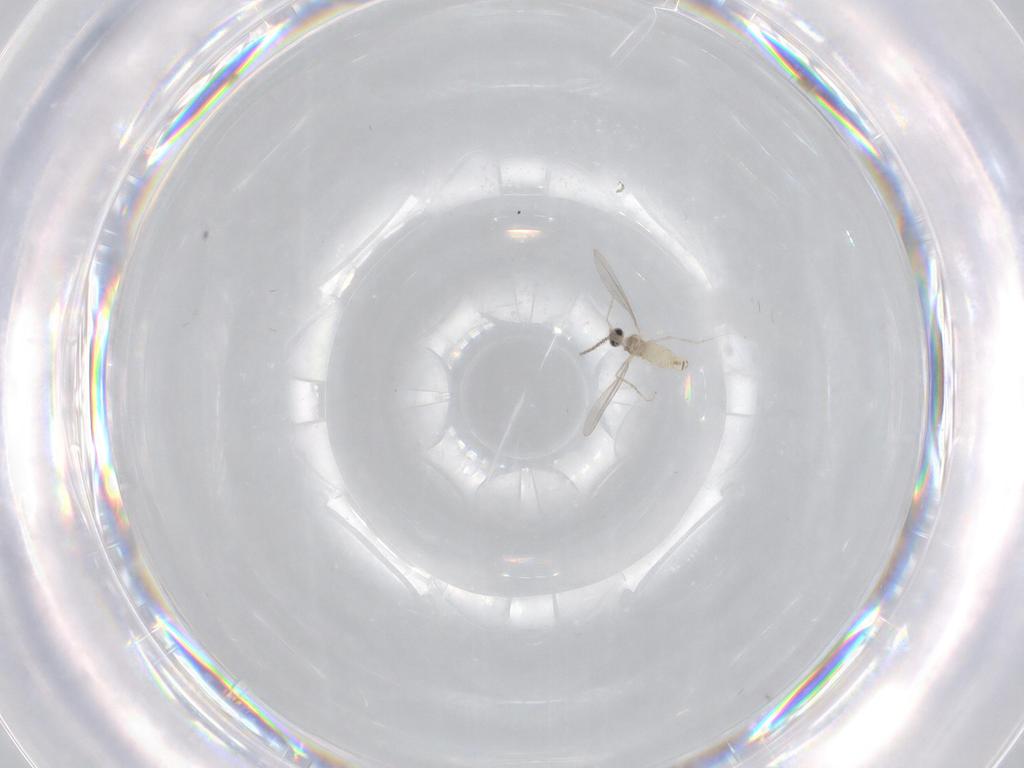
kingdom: Animalia
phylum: Arthropoda
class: Insecta
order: Diptera
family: Cecidomyiidae
